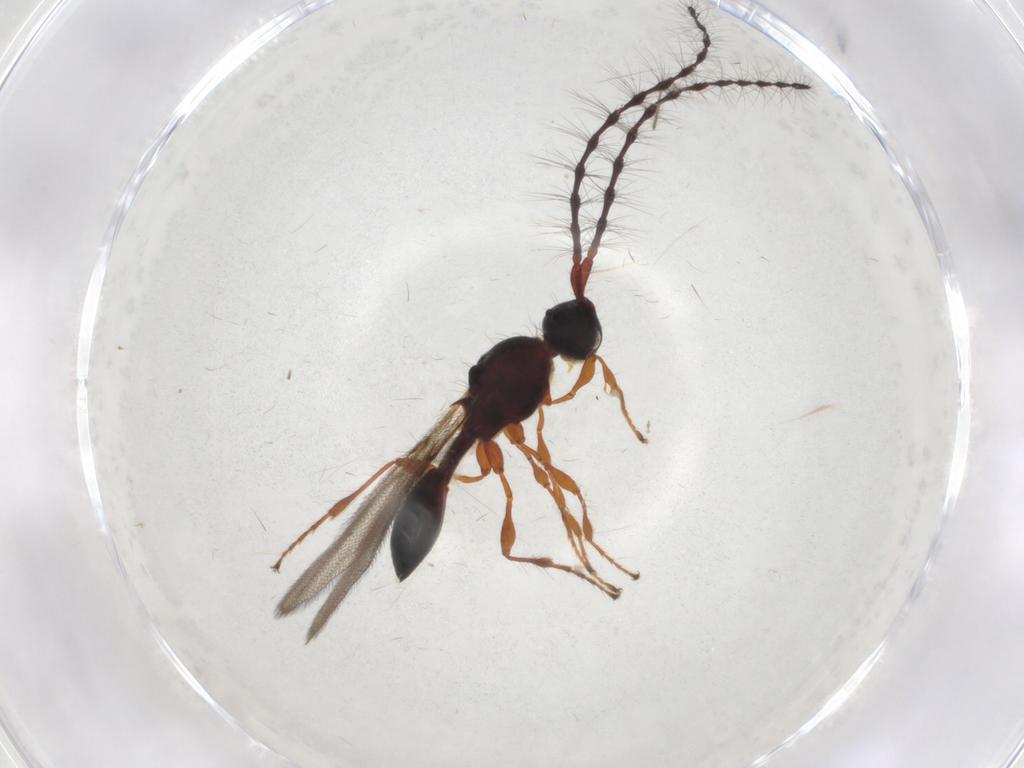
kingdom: Animalia
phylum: Arthropoda
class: Insecta
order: Hymenoptera
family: Diapriidae
